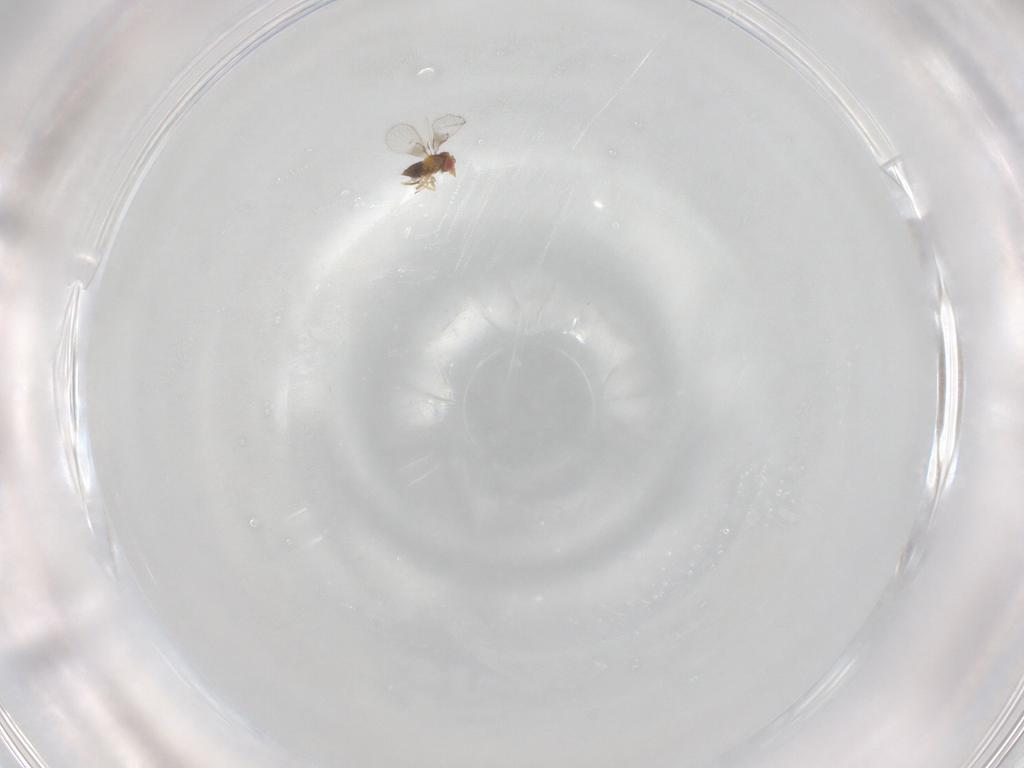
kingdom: Animalia
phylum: Arthropoda
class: Insecta
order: Hymenoptera
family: Trichogrammatidae
